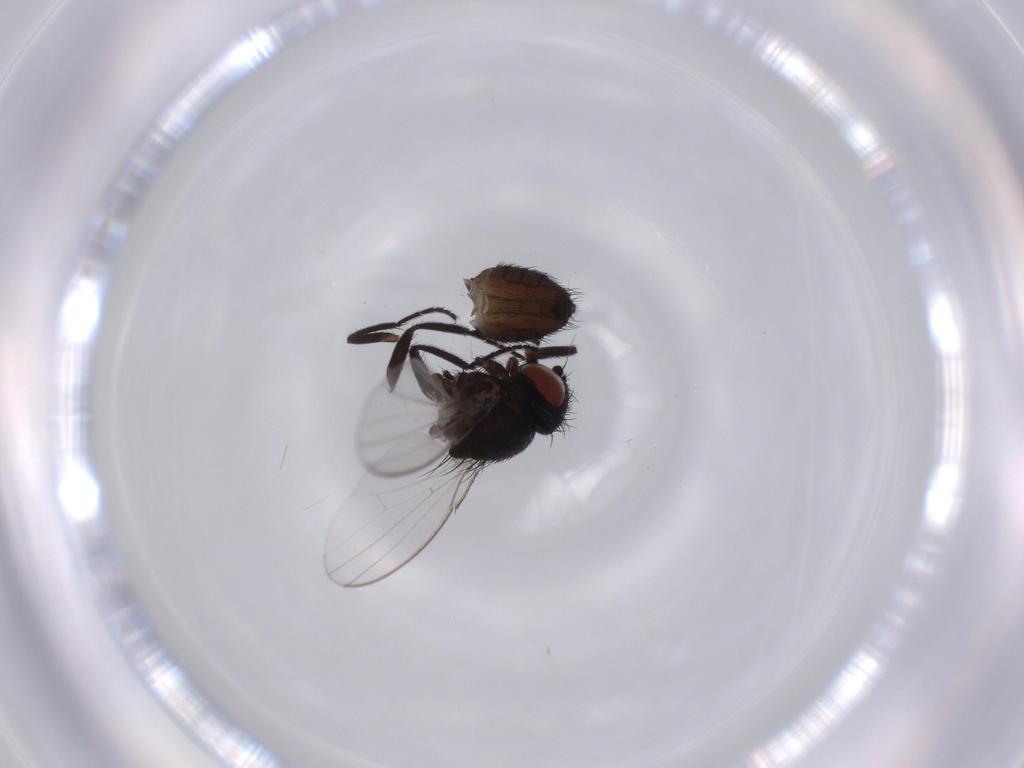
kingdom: Animalia
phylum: Arthropoda
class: Insecta
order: Diptera
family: Milichiidae
